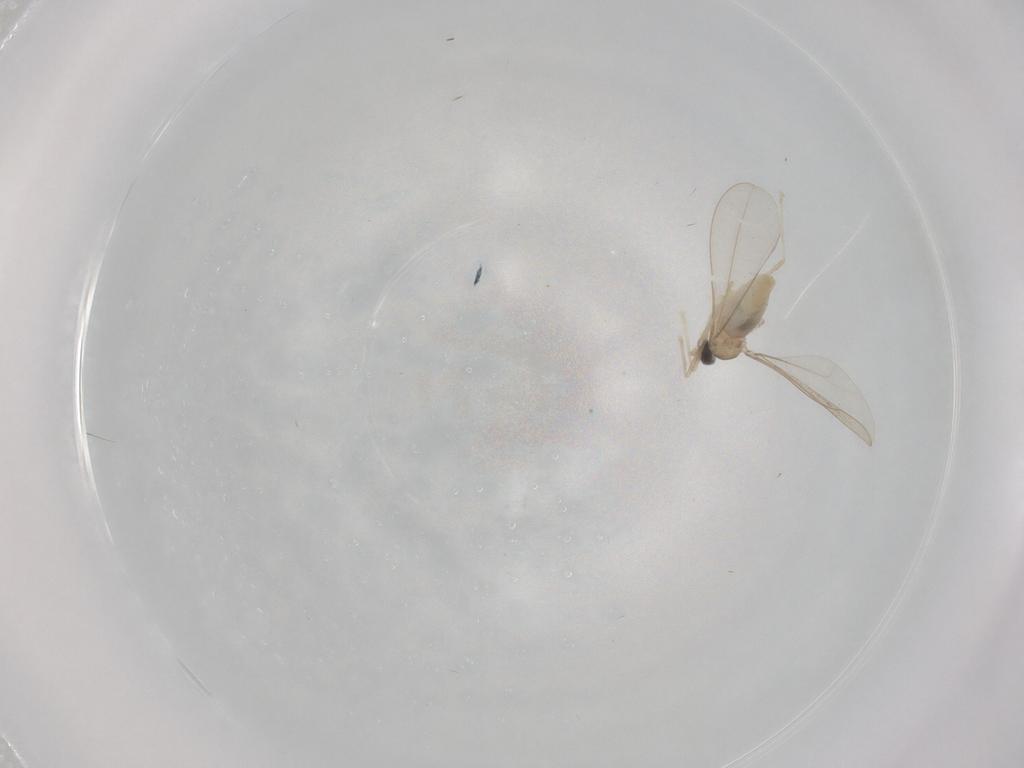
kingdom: Animalia
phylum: Arthropoda
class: Insecta
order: Diptera
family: Cecidomyiidae
